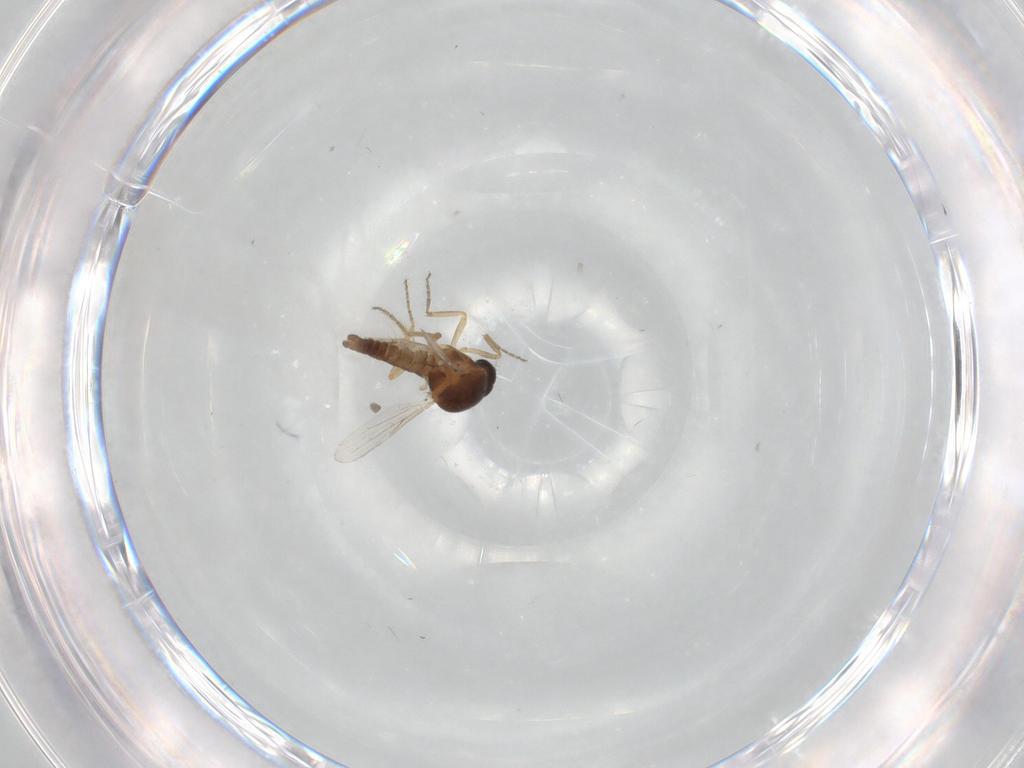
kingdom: Animalia
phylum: Arthropoda
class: Insecta
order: Diptera
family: Ceratopogonidae
